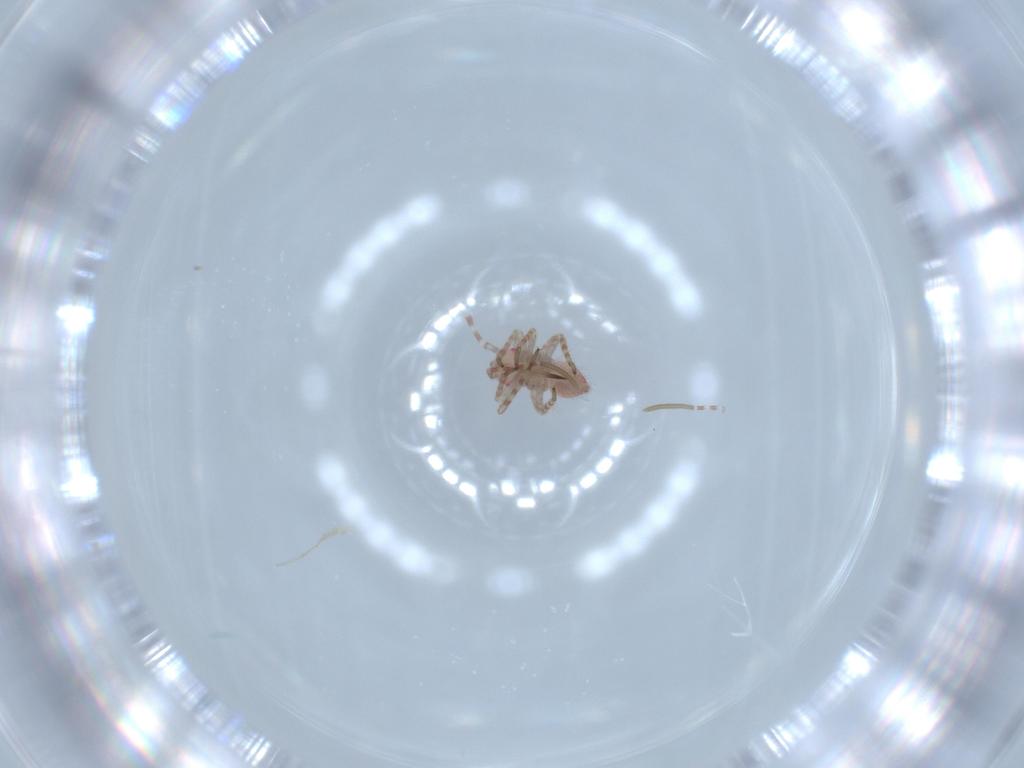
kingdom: Animalia
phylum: Arthropoda
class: Insecta
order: Hemiptera
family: Miridae
